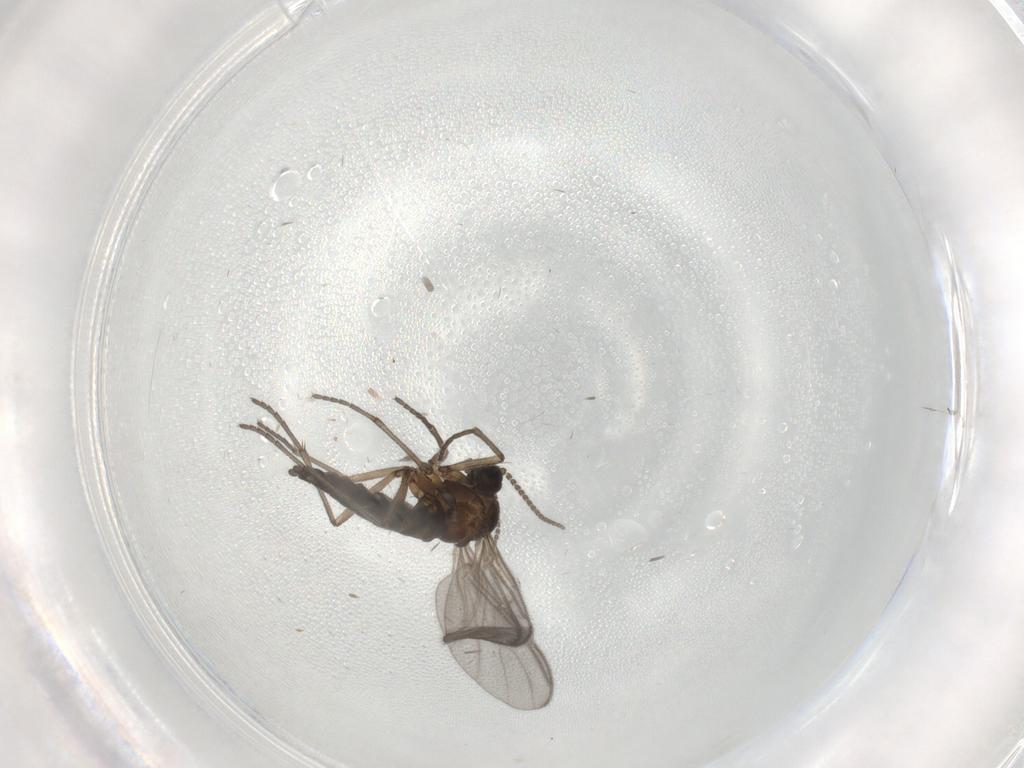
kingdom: Animalia
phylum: Arthropoda
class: Insecta
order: Diptera
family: Sciaridae
